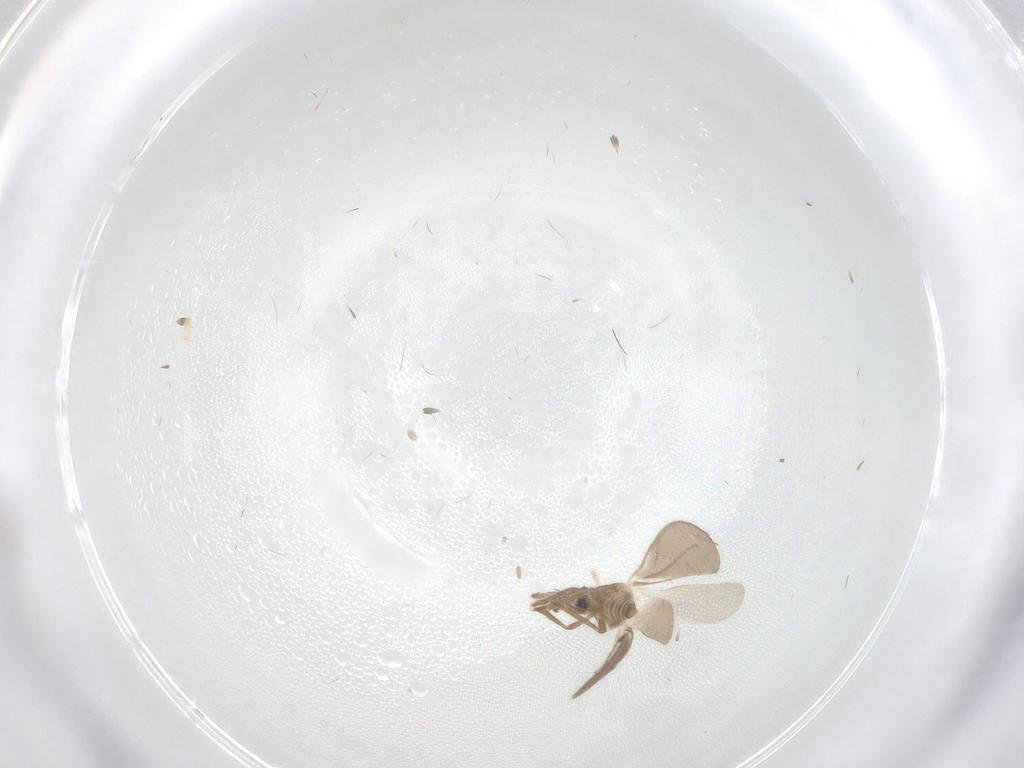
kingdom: Animalia
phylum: Arthropoda
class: Insecta
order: Hemiptera
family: Enicocephalidae
